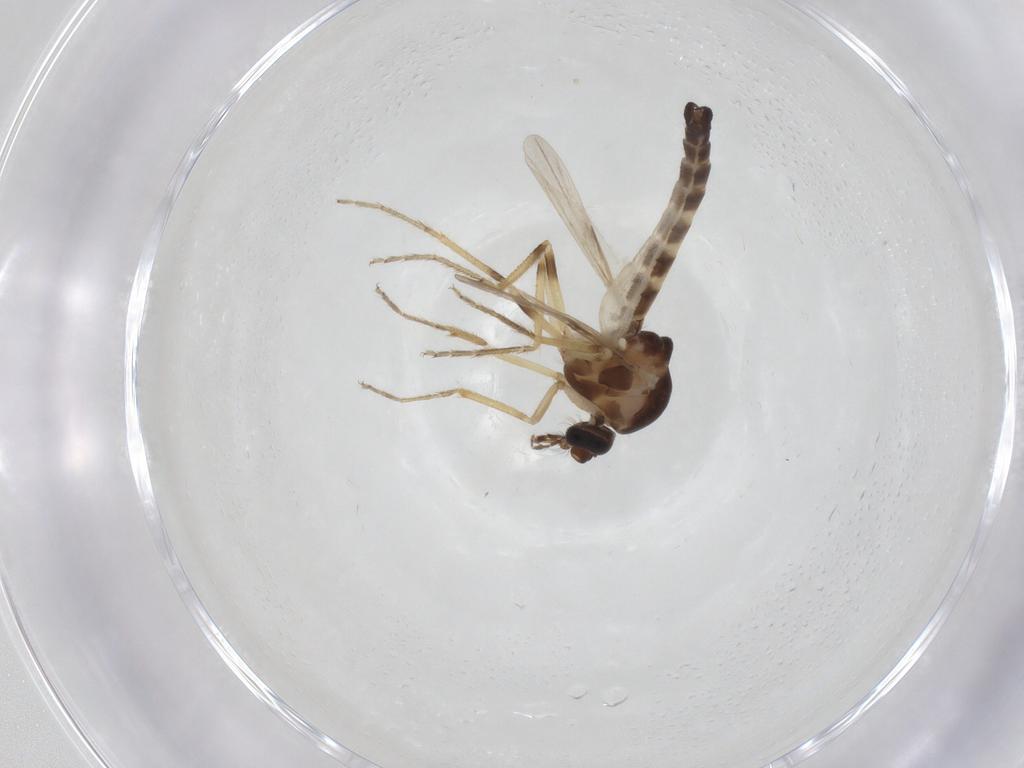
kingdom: Animalia
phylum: Arthropoda
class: Insecta
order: Diptera
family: Ceratopogonidae
